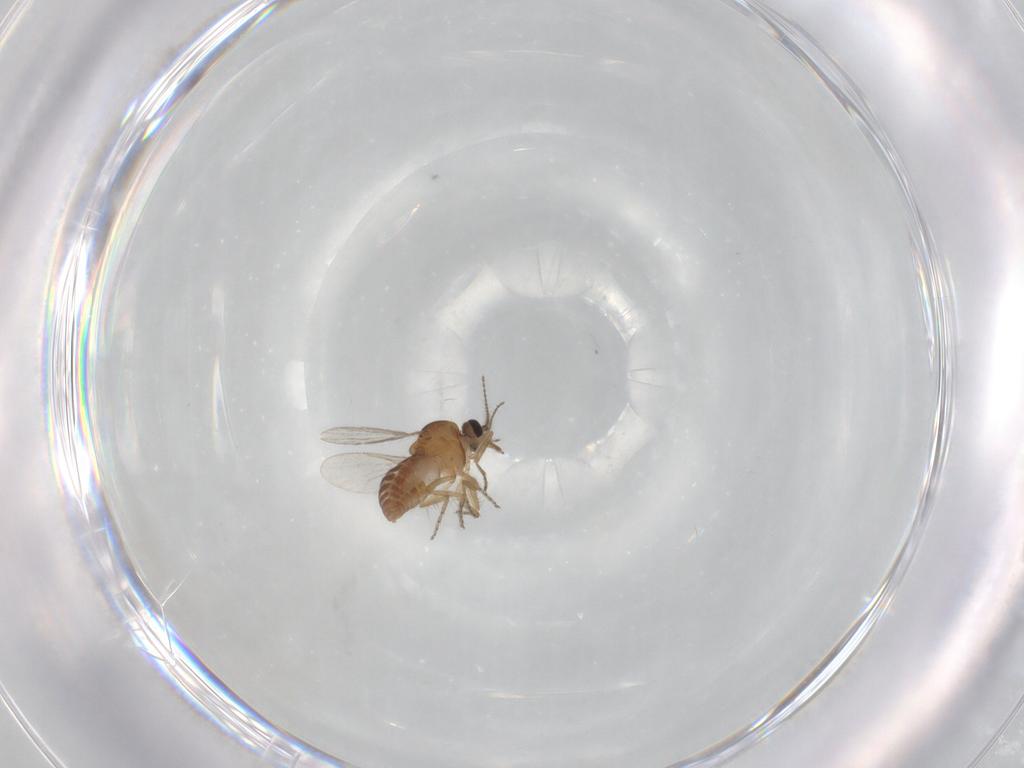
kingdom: Animalia
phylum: Arthropoda
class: Insecta
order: Diptera
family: Ceratopogonidae
